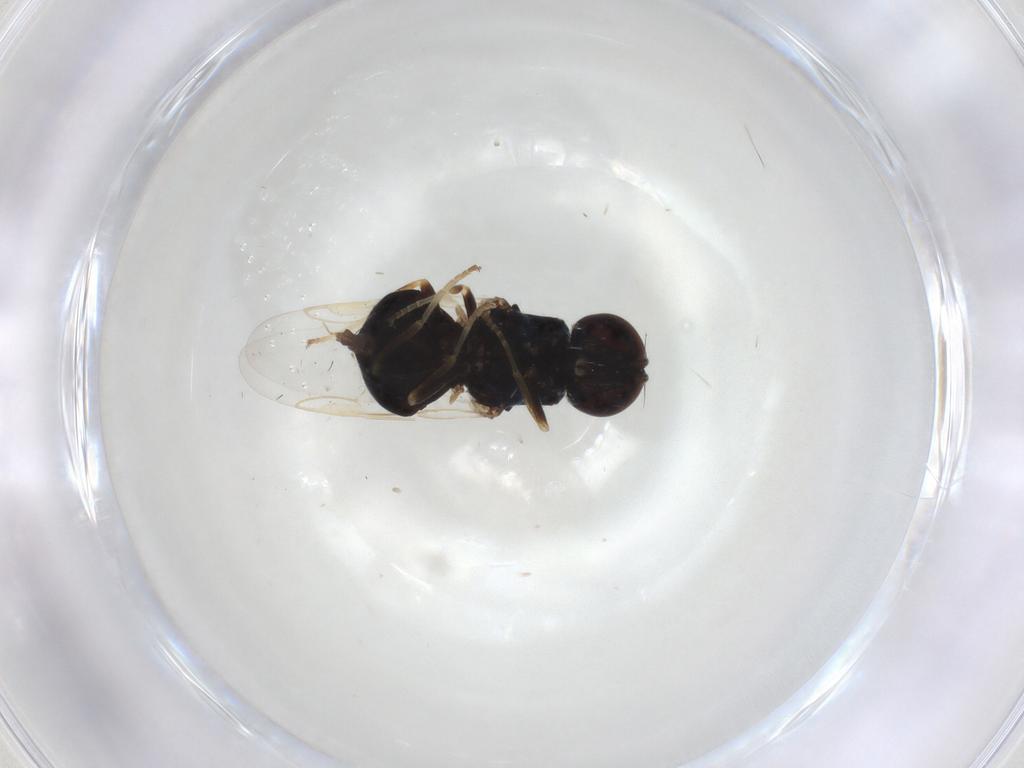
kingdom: Animalia
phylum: Arthropoda
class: Insecta
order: Diptera
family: Stratiomyidae
